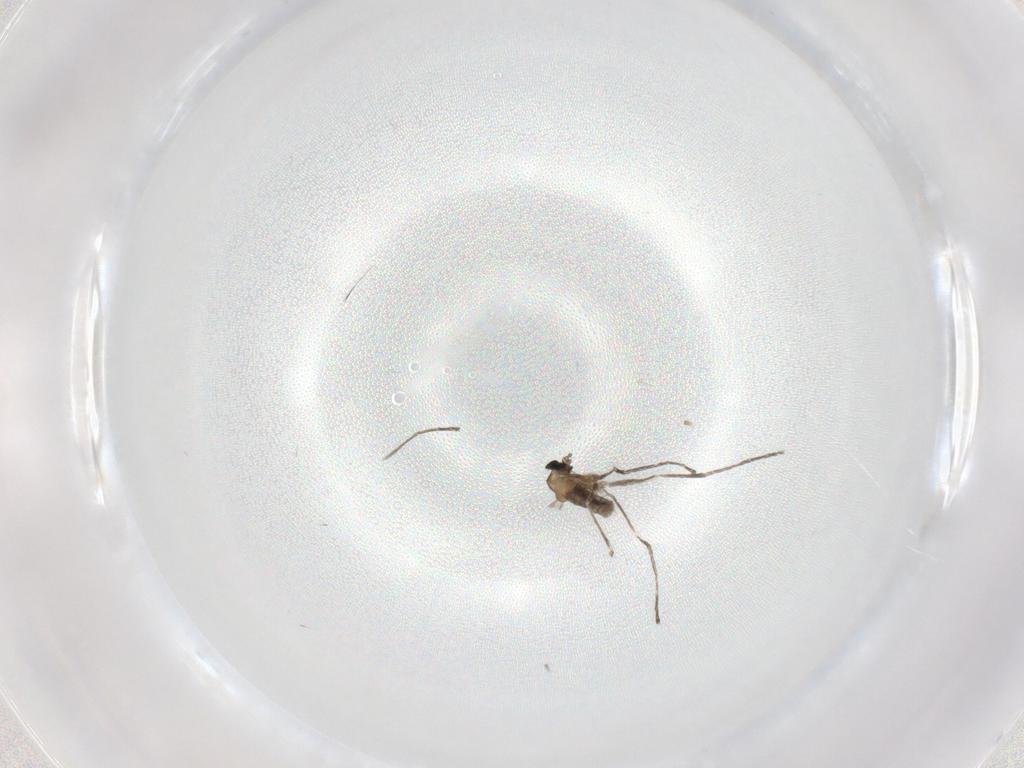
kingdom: Animalia
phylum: Arthropoda
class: Insecta
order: Diptera
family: Cecidomyiidae
